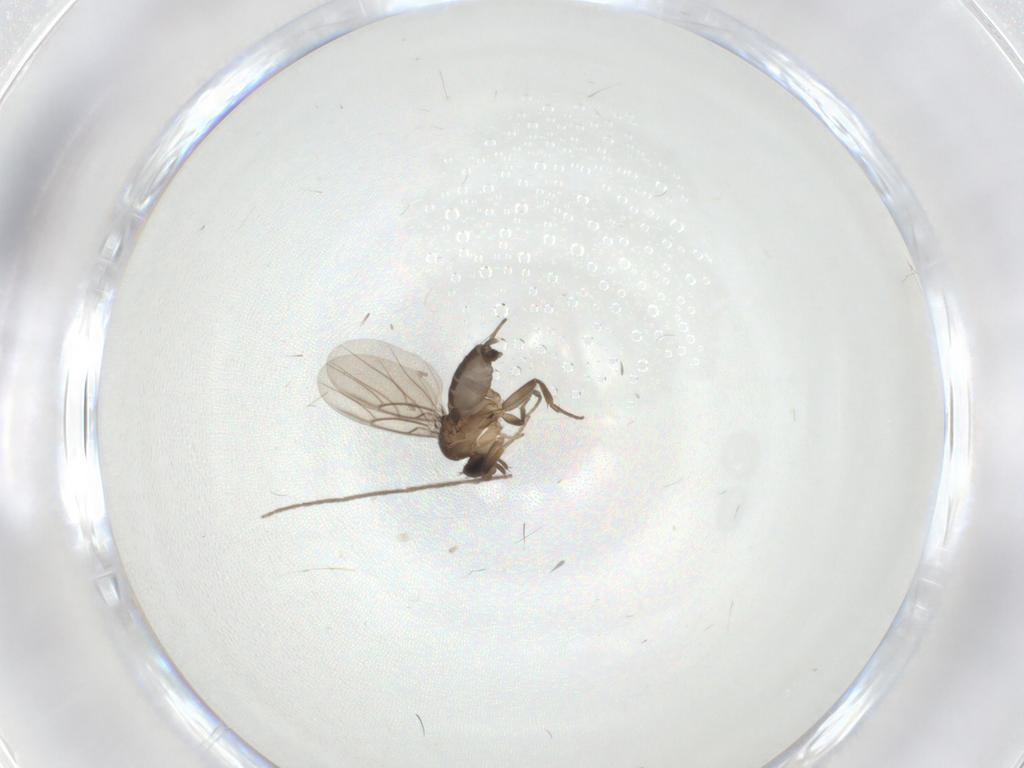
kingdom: Animalia
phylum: Arthropoda
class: Insecta
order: Diptera
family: Phoridae
